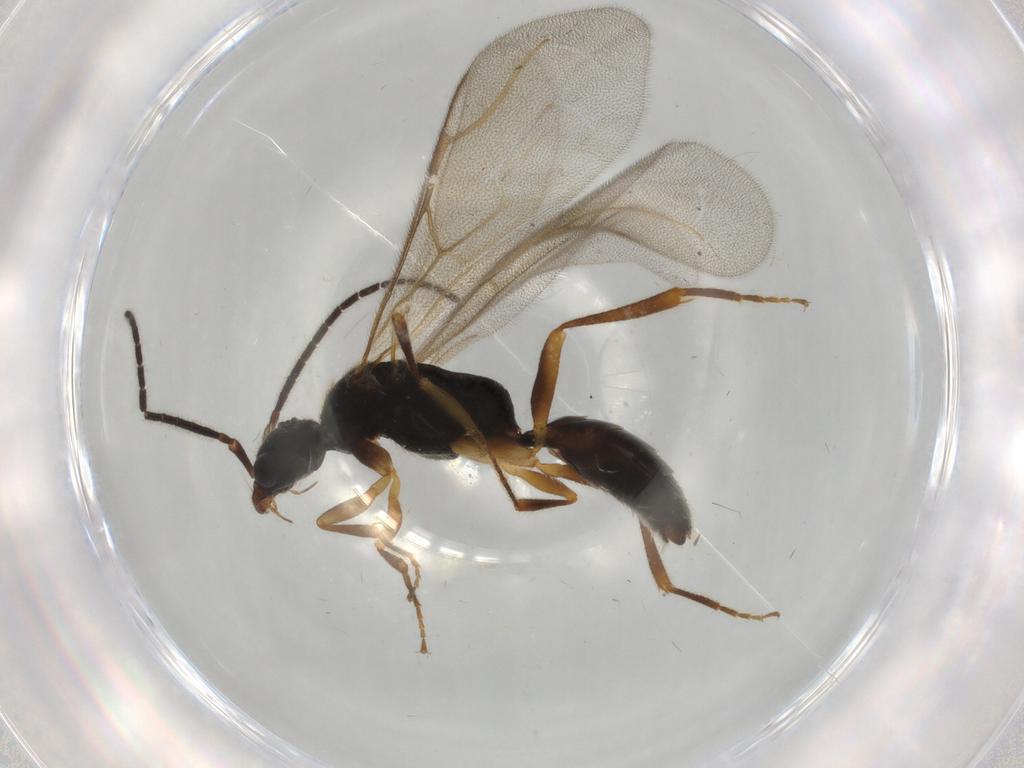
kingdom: Animalia
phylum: Arthropoda
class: Insecta
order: Hymenoptera
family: Bethylidae
